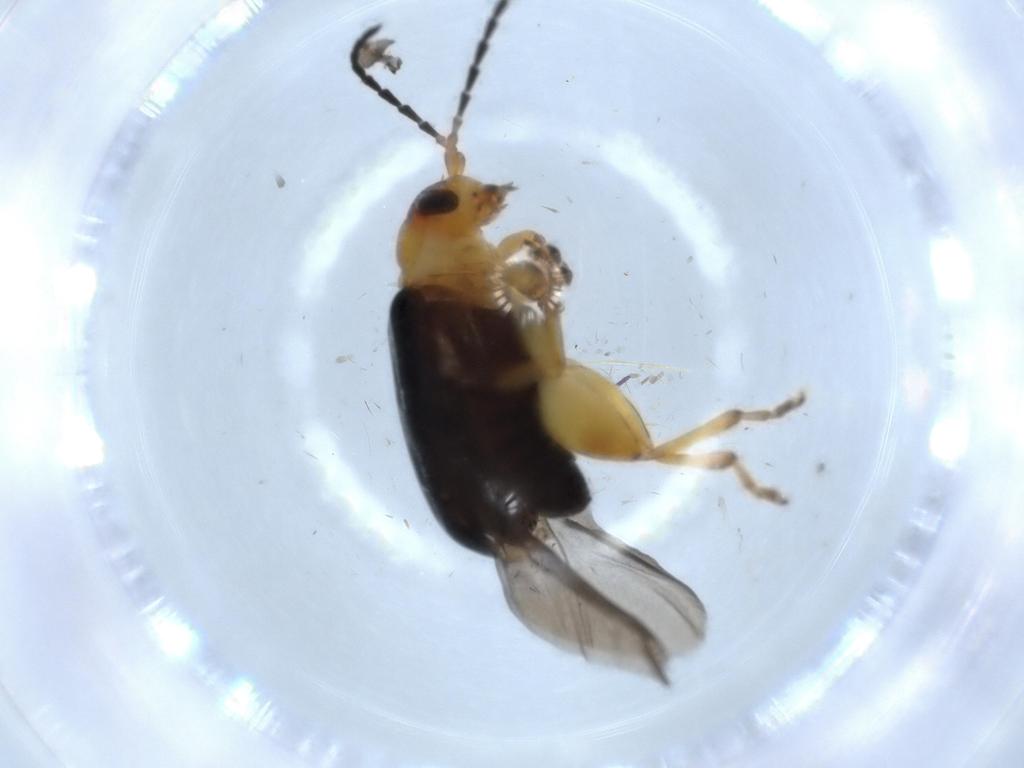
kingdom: Animalia
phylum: Arthropoda
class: Insecta
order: Coleoptera
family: Chrysomelidae
